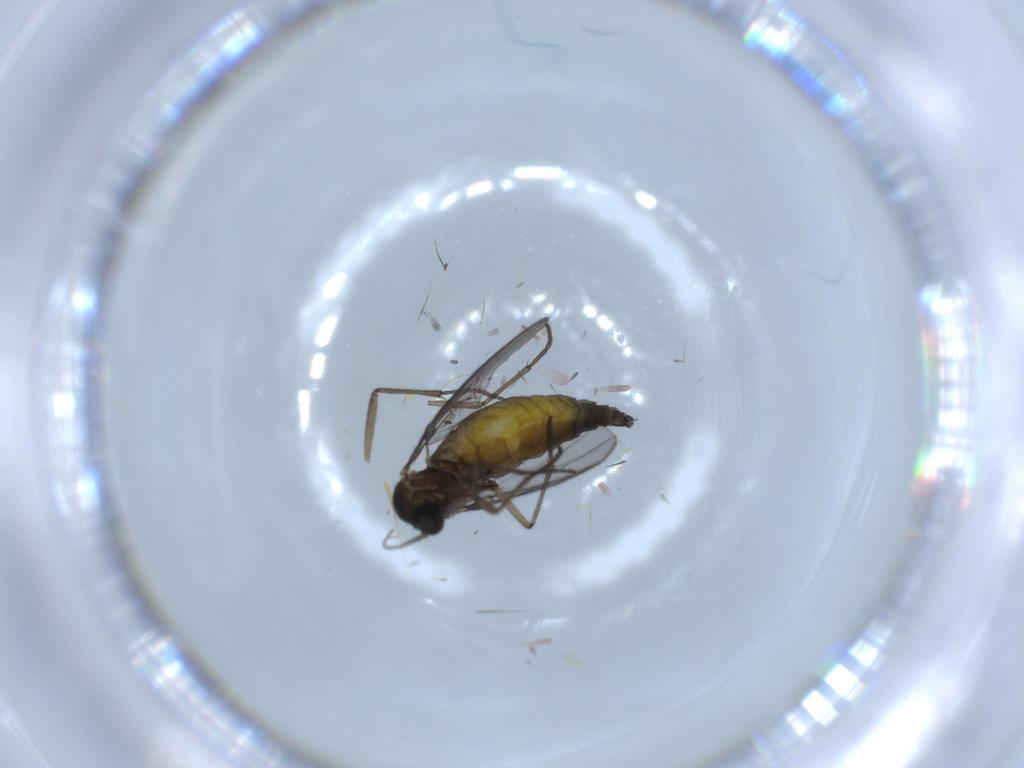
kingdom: Animalia
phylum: Arthropoda
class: Insecta
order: Diptera
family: Sciaridae
